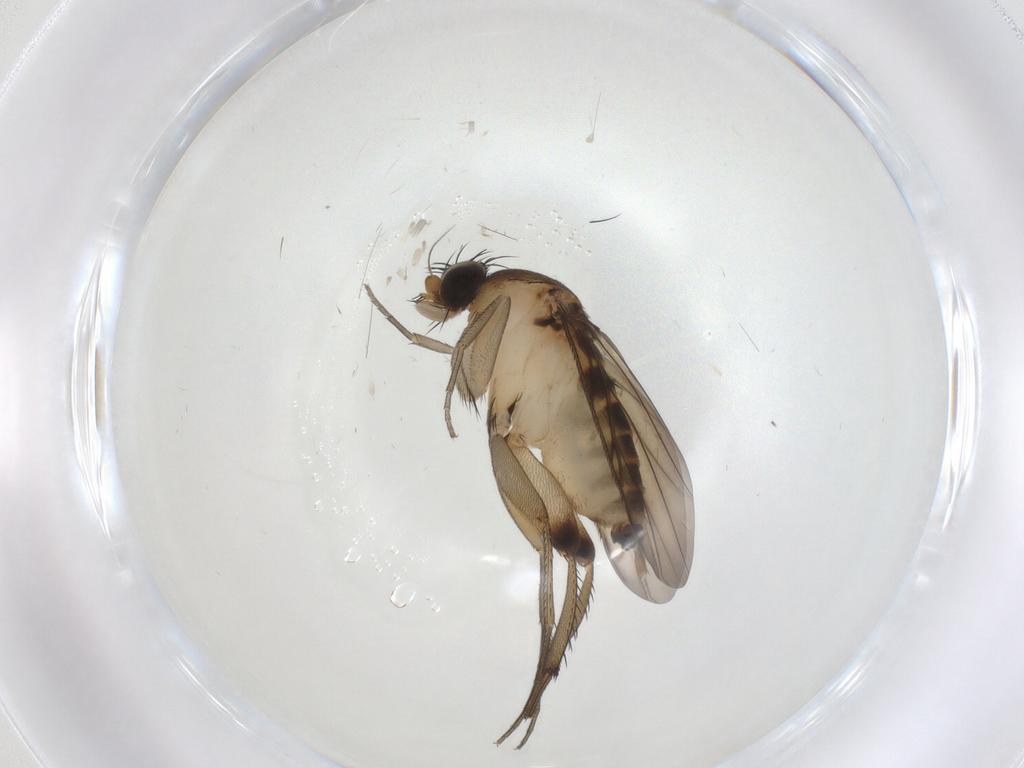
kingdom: Animalia
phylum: Arthropoda
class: Insecta
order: Diptera
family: Phoridae
